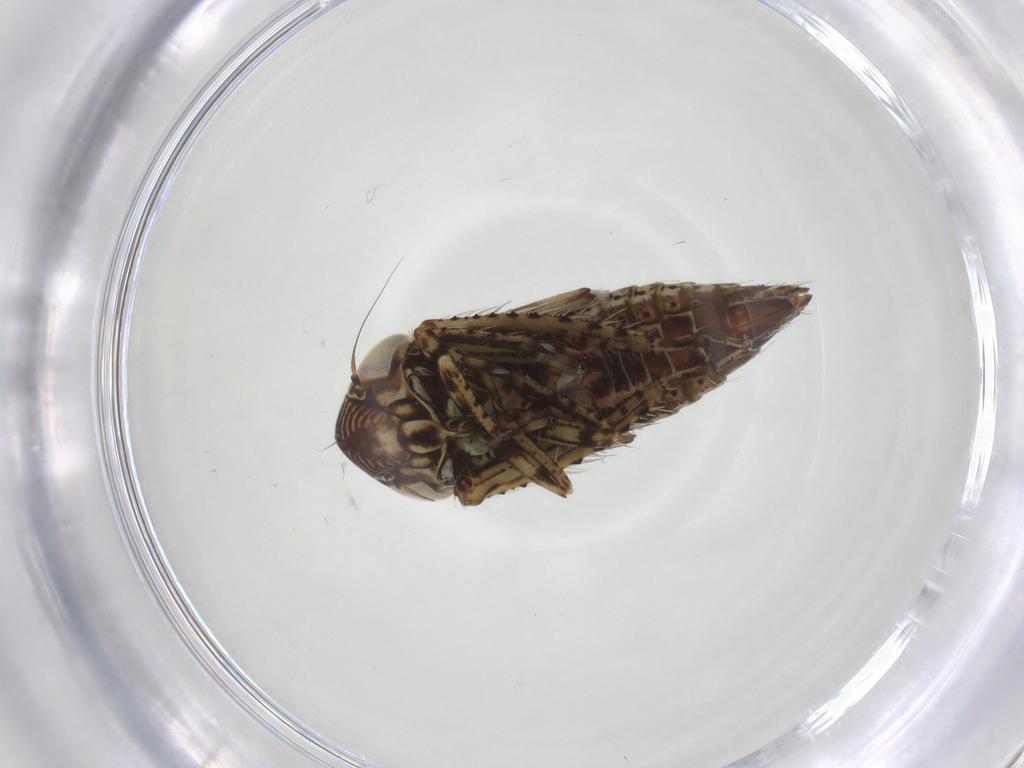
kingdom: Animalia
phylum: Arthropoda
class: Insecta
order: Hemiptera
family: Cicadellidae
